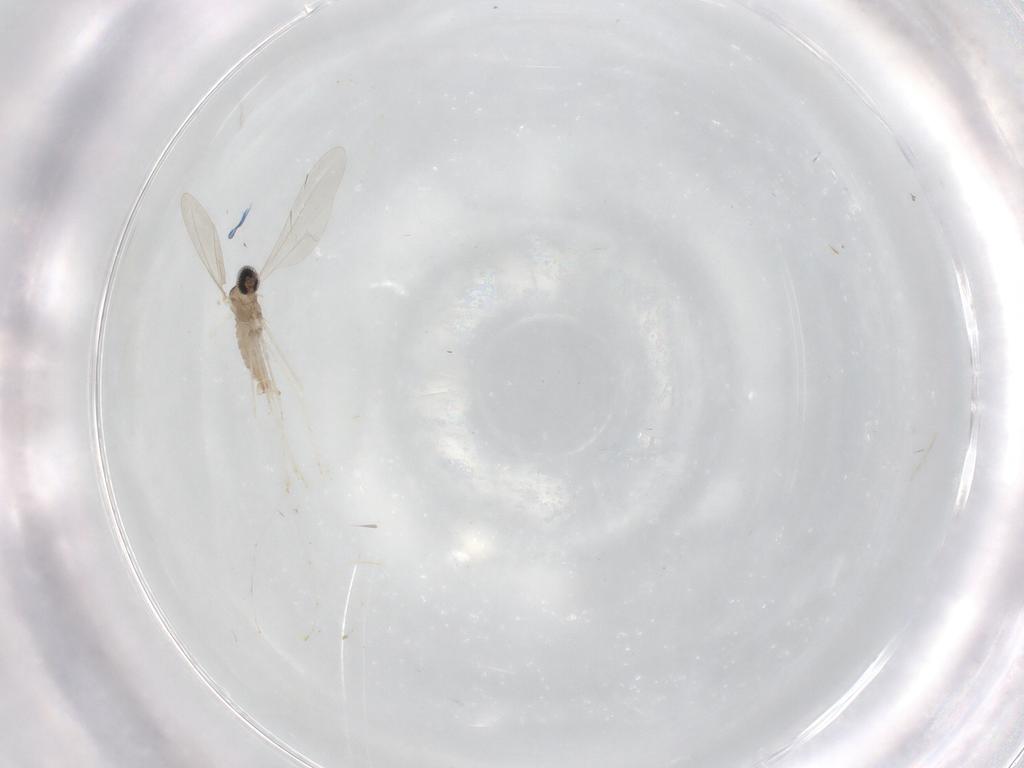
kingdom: Animalia
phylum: Arthropoda
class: Insecta
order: Diptera
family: Cecidomyiidae
